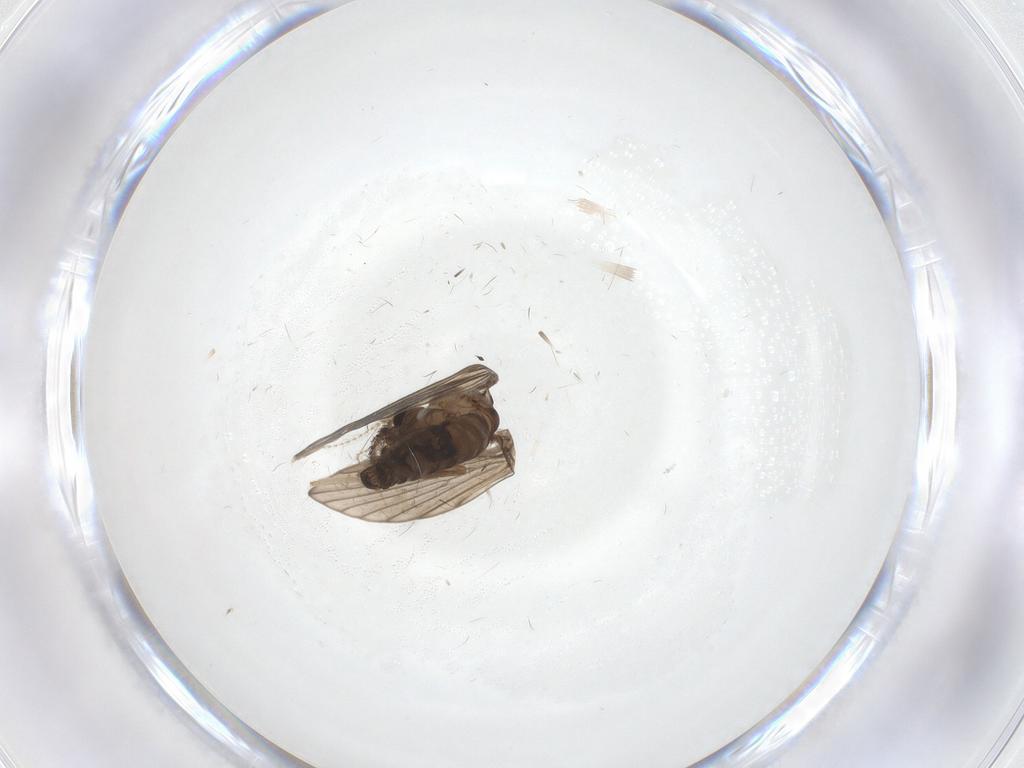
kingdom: Animalia
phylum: Arthropoda
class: Insecta
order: Diptera
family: Psychodidae
